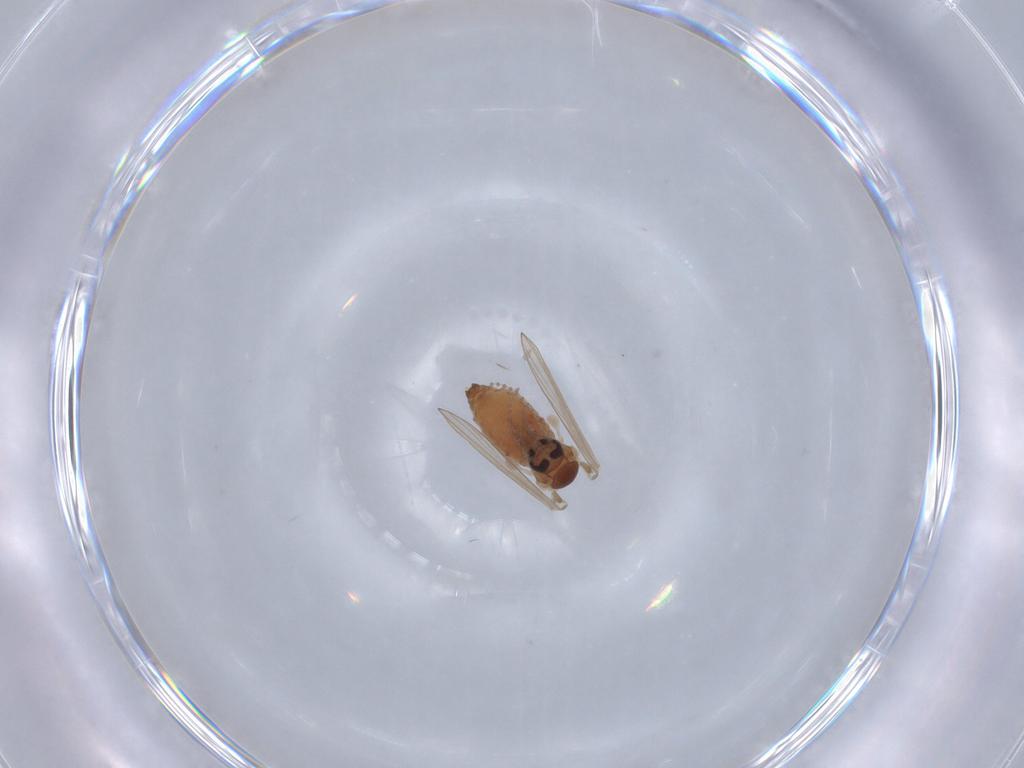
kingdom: Animalia
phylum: Arthropoda
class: Insecta
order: Diptera
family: Psychodidae
